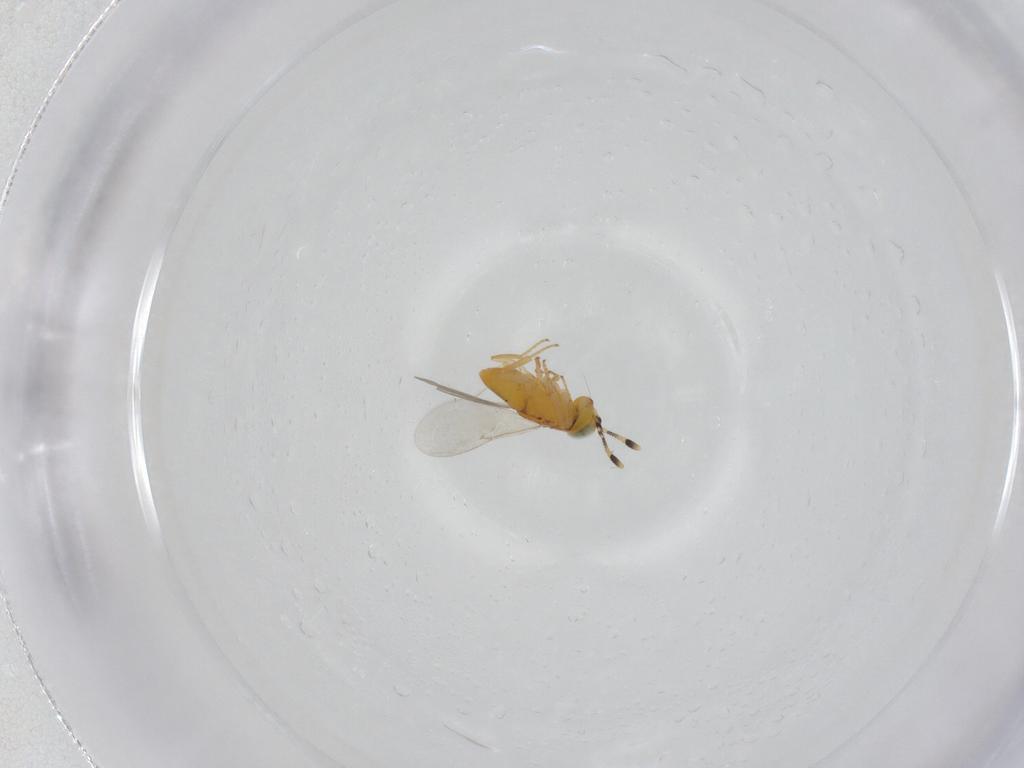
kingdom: Animalia
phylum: Arthropoda
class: Insecta
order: Hymenoptera
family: Encyrtidae
